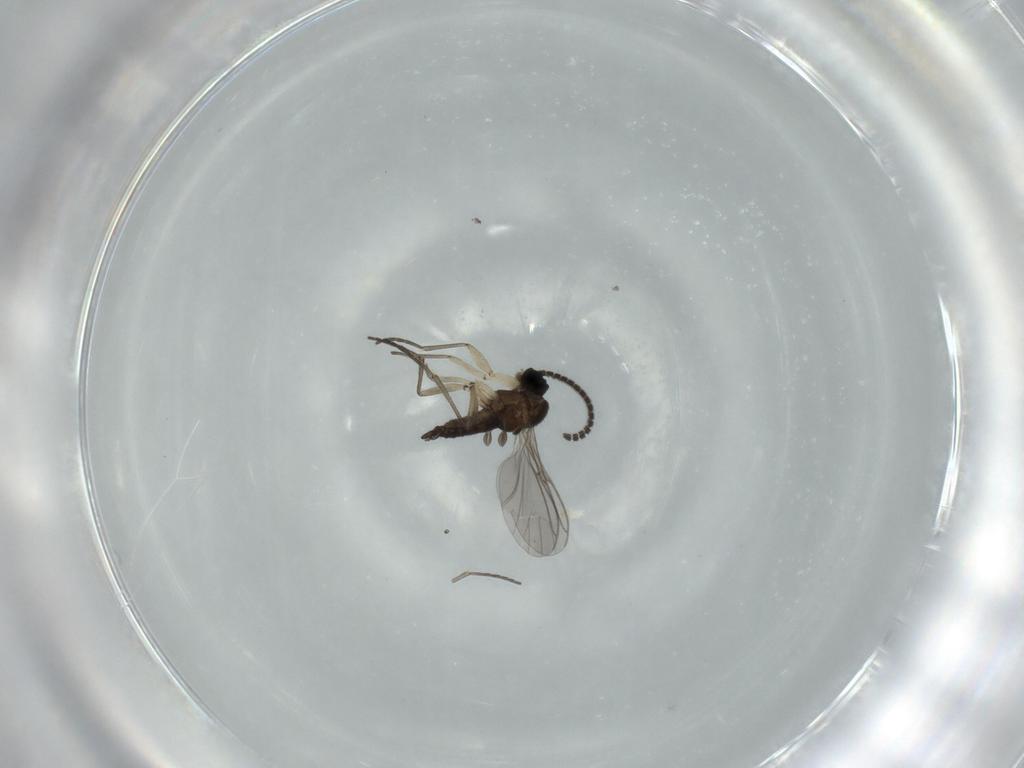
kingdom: Animalia
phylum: Arthropoda
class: Insecta
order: Diptera
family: Sciaridae
